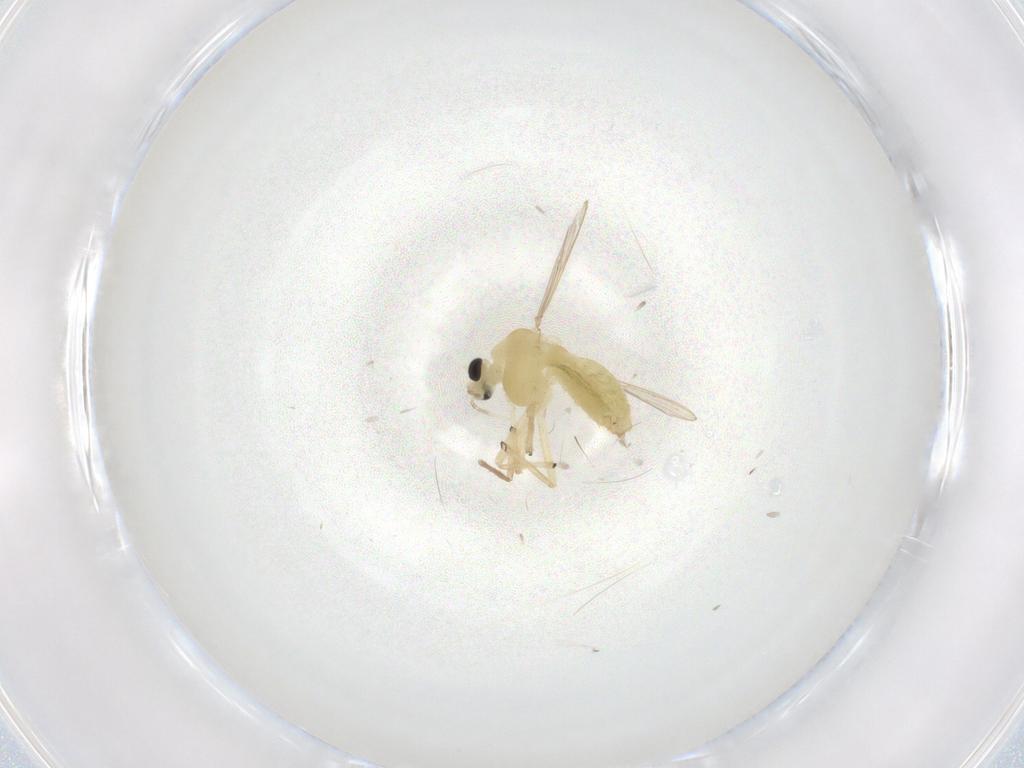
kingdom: Animalia
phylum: Arthropoda
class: Insecta
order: Diptera
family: Chironomidae
